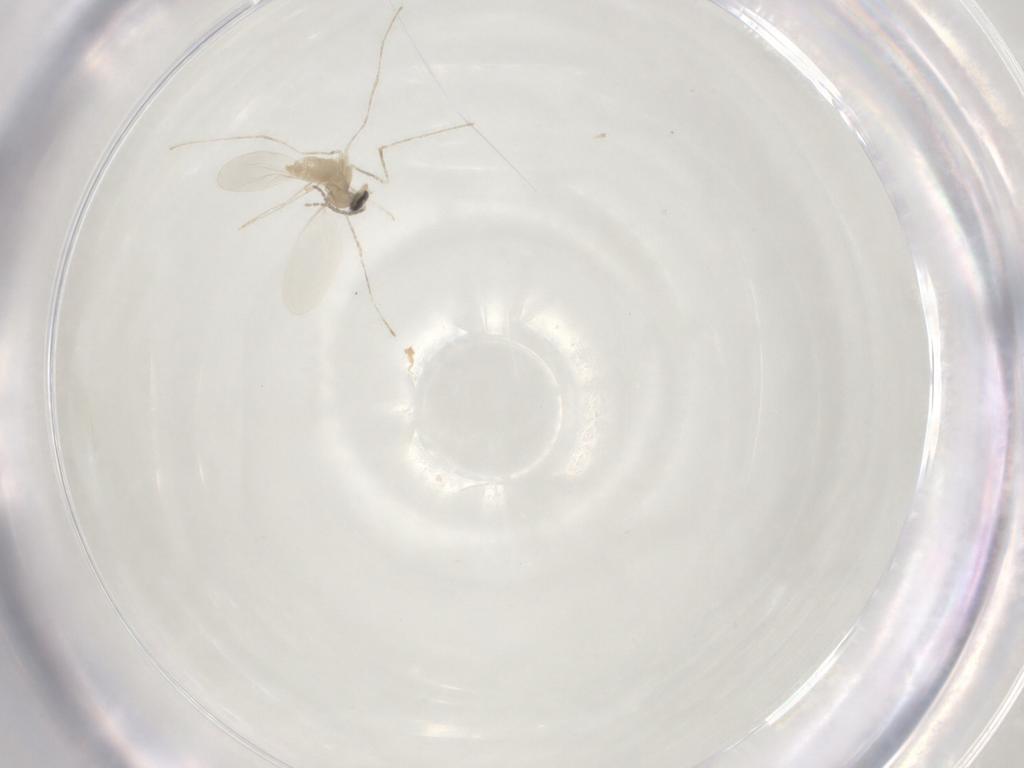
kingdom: Animalia
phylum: Arthropoda
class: Insecta
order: Diptera
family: Cecidomyiidae
